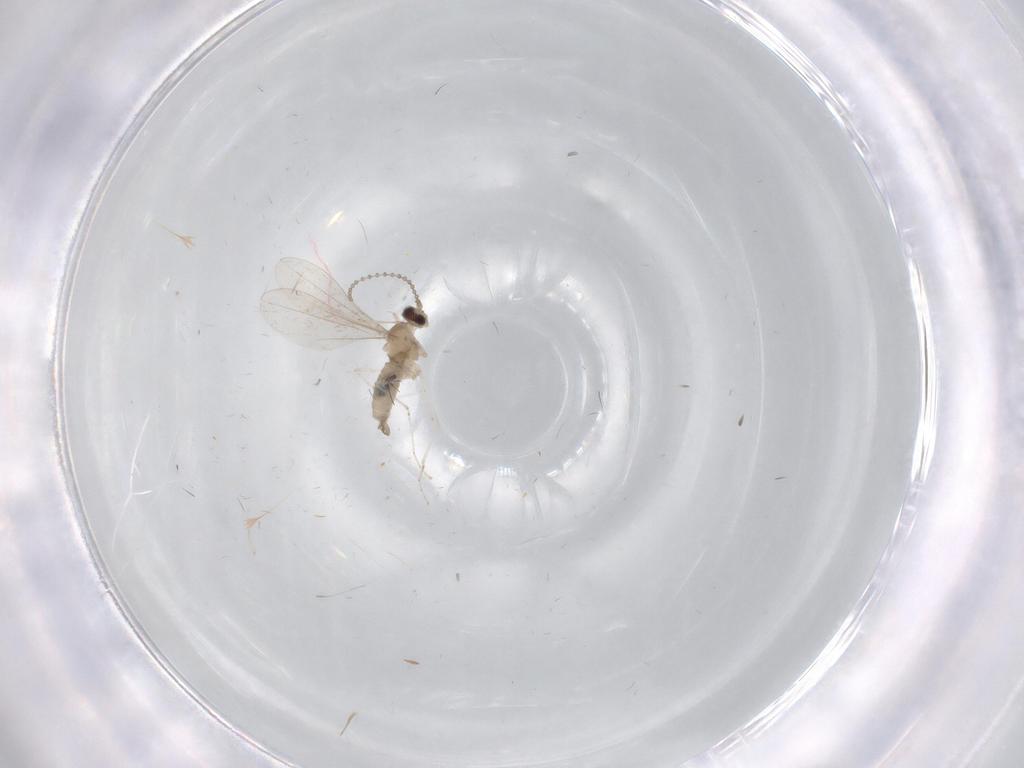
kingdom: Animalia
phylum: Arthropoda
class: Insecta
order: Diptera
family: Cecidomyiidae
